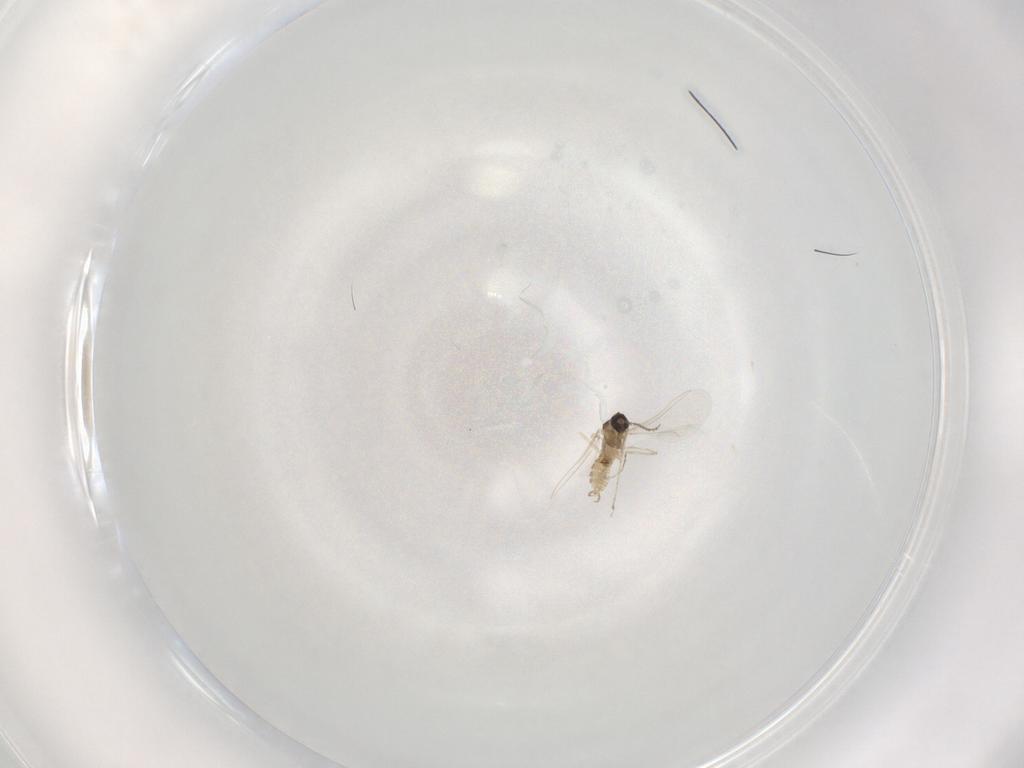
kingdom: Animalia
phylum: Arthropoda
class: Insecta
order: Diptera
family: Cecidomyiidae
